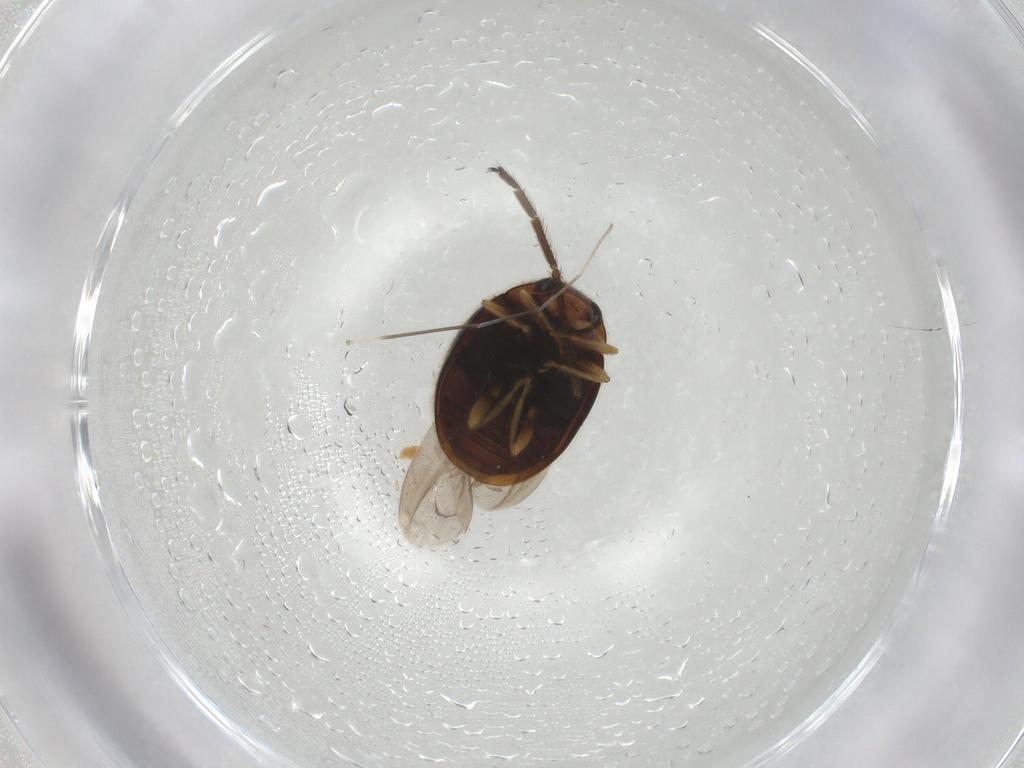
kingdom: Animalia
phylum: Arthropoda
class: Insecta
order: Coleoptera
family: Coccinellidae
